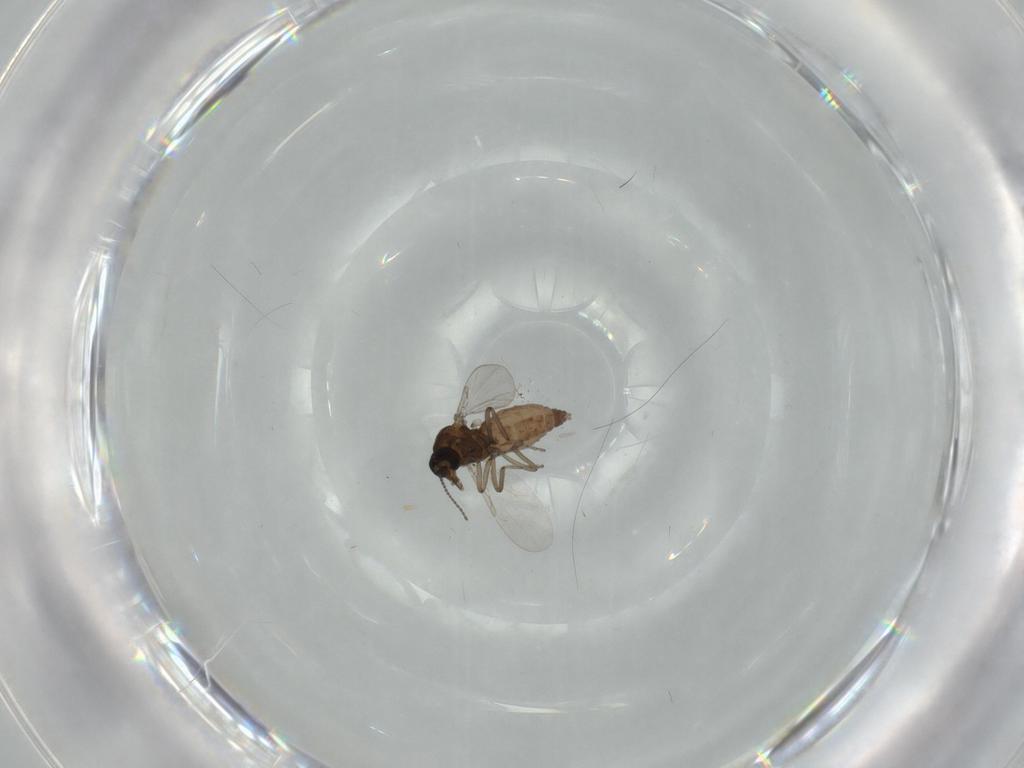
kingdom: Animalia
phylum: Arthropoda
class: Insecta
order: Diptera
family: Ceratopogonidae
